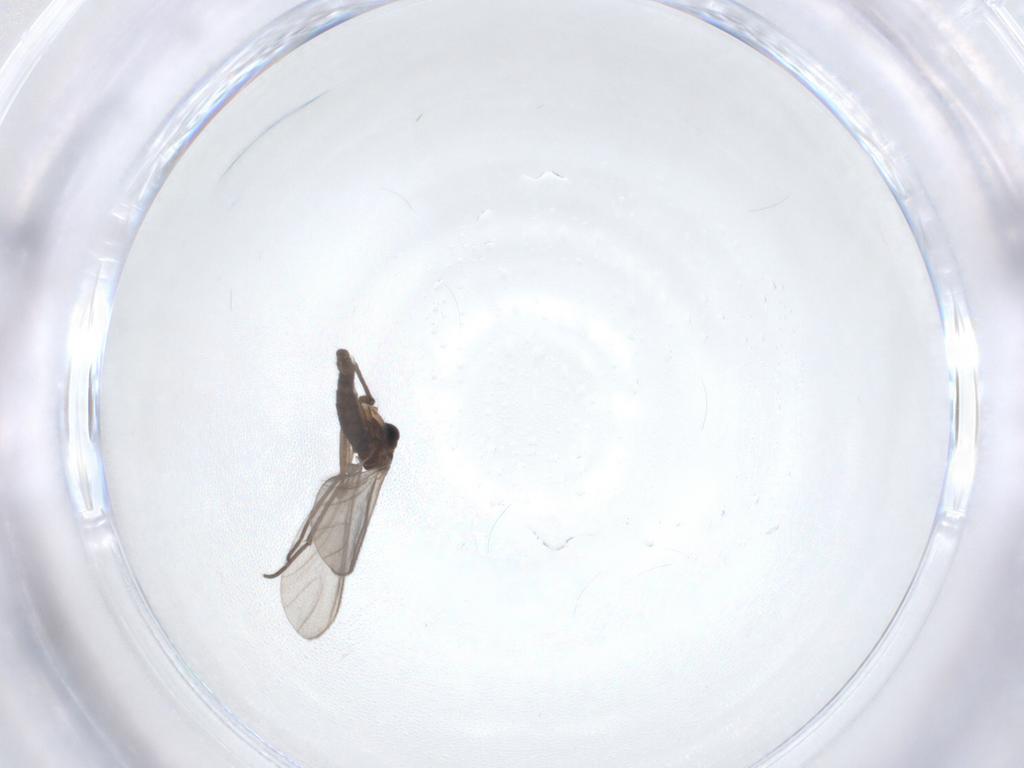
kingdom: Animalia
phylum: Arthropoda
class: Insecta
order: Diptera
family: Sciaridae
